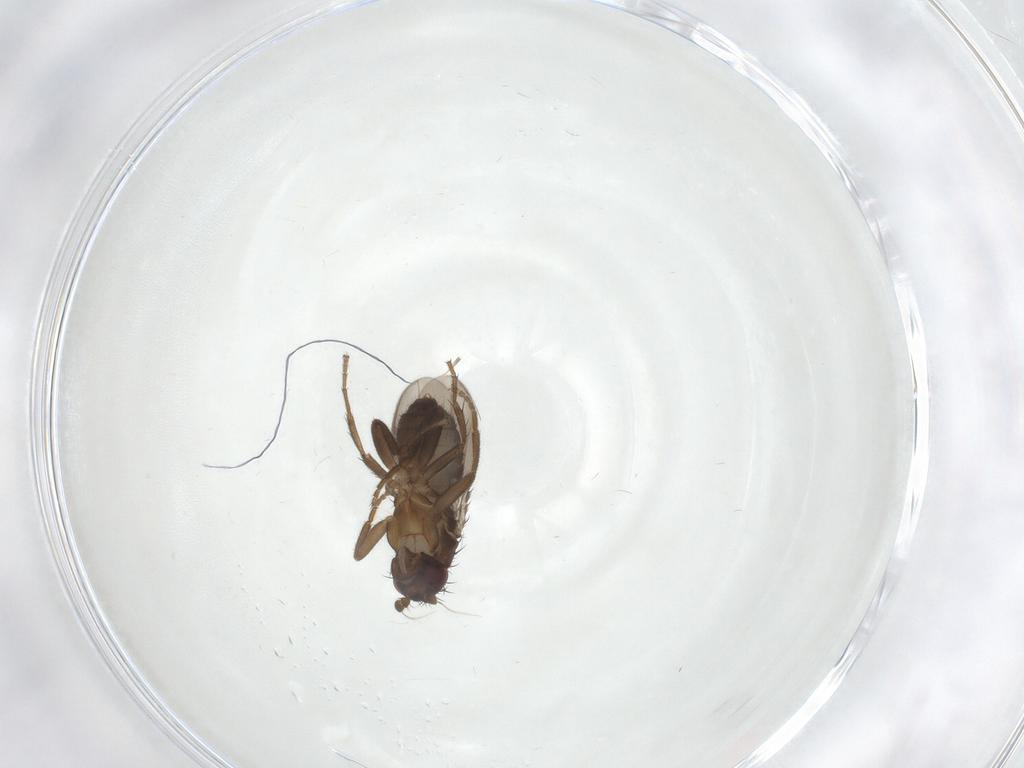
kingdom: Animalia
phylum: Arthropoda
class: Insecta
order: Diptera
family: Sphaeroceridae
